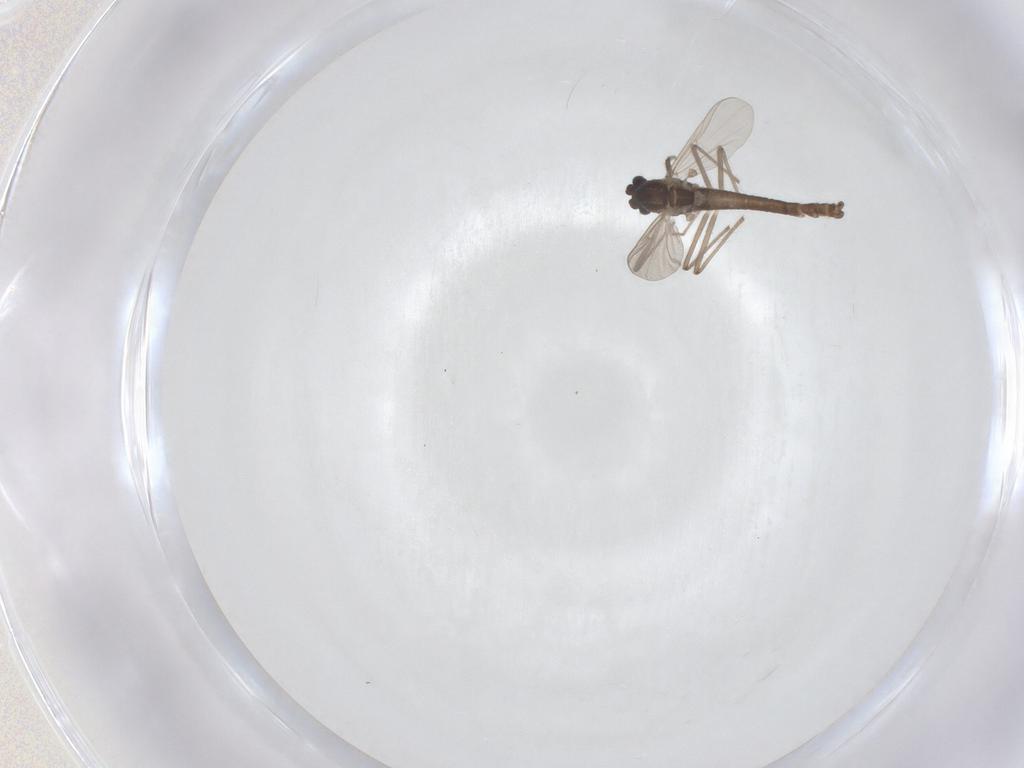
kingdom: Animalia
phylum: Arthropoda
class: Insecta
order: Diptera
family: Chironomidae
